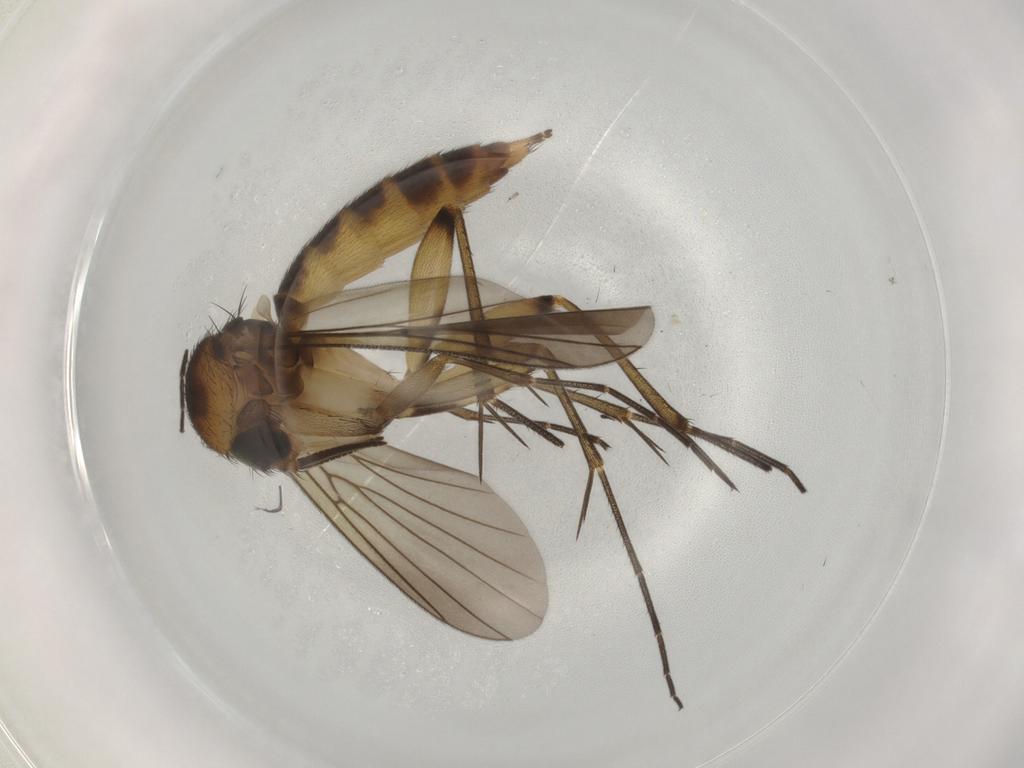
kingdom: Animalia
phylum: Arthropoda
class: Insecta
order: Diptera
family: Mycetophilidae
